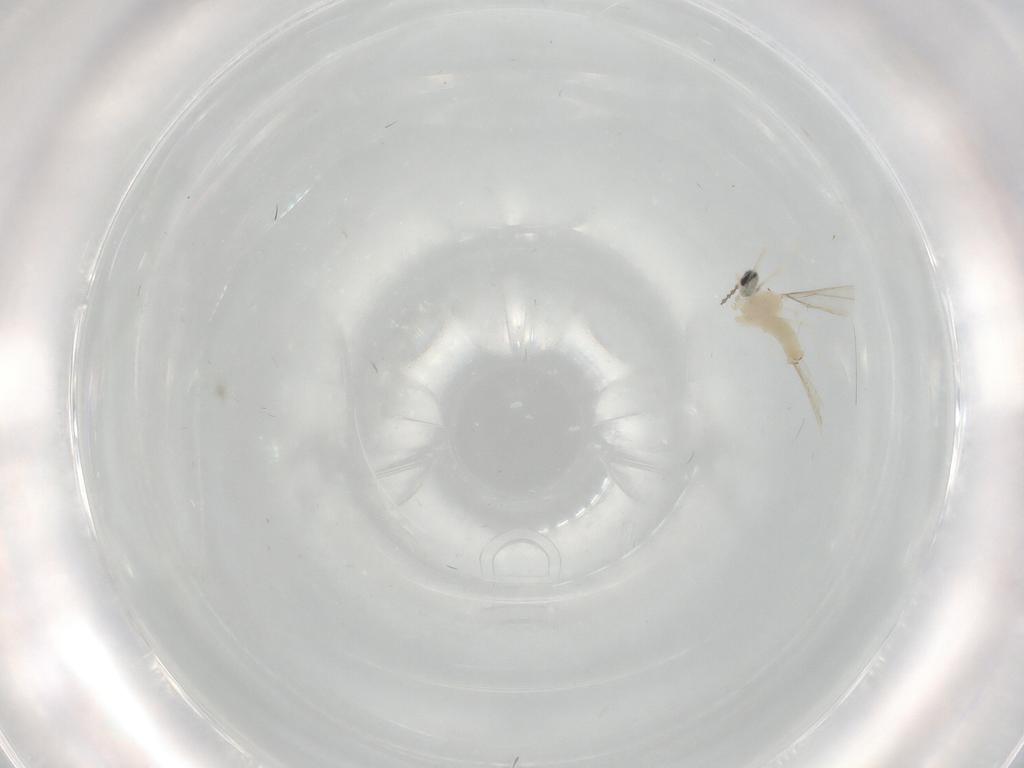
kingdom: Animalia
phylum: Arthropoda
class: Insecta
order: Diptera
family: Cecidomyiidae
